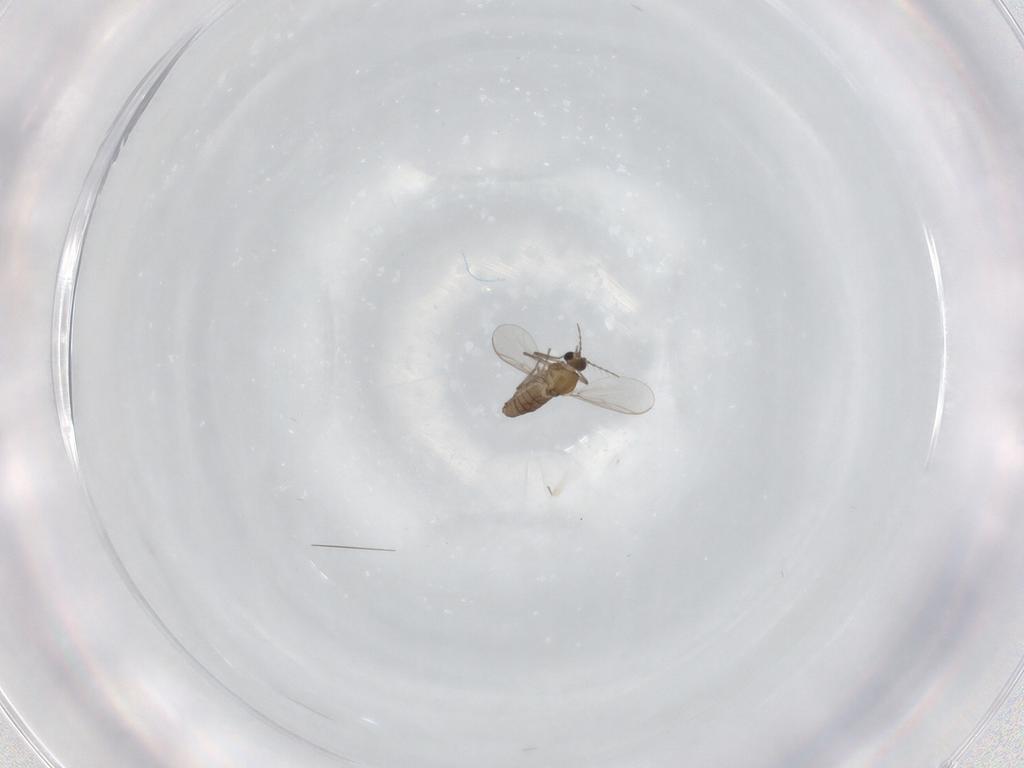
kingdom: Animalia
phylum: Arthropoda
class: Insecta
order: Diptera
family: Chironomidae
